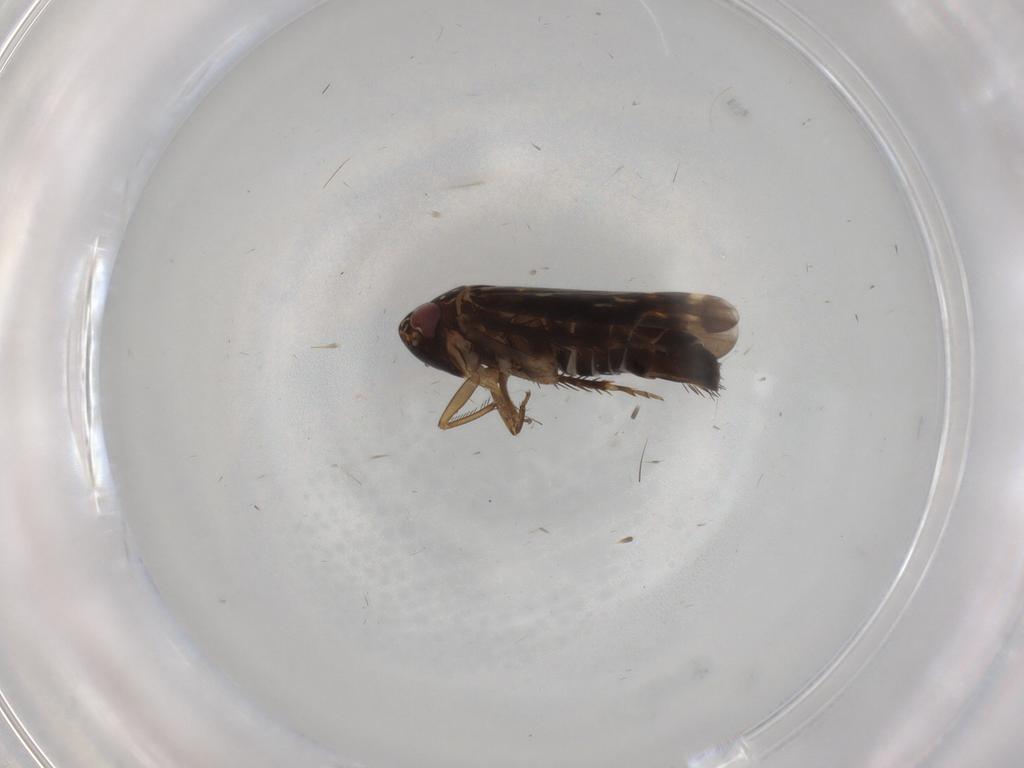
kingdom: Animalia
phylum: Arthropoda
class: Insecta
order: Hemiptera
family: Cicadellidae
